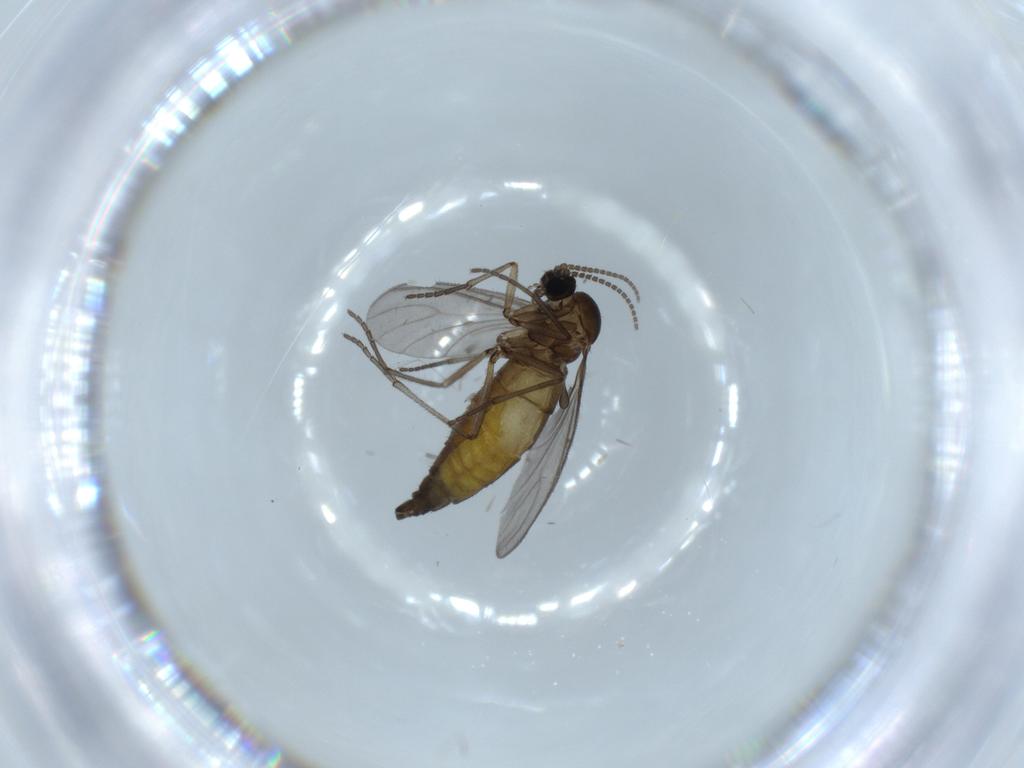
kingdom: Animalia
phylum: Arthropoda
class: Insecta
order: Diptera
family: Sciaridae
